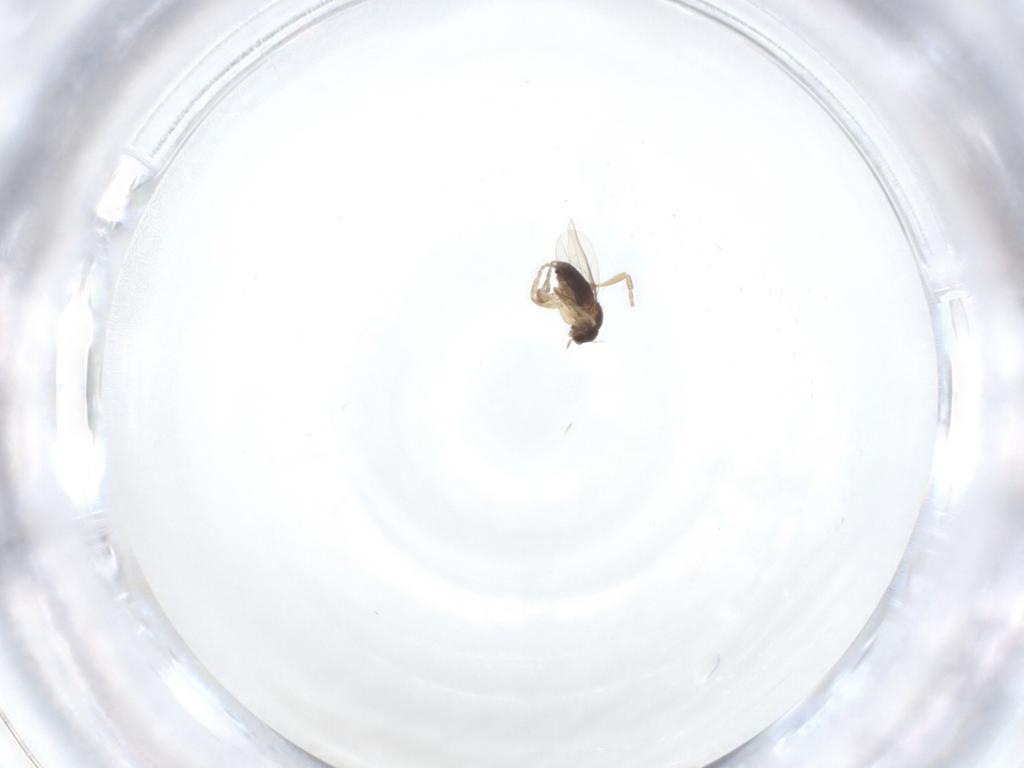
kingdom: Animalia
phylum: Arthropoda
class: Insecta
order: Diptera
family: Phoridae
